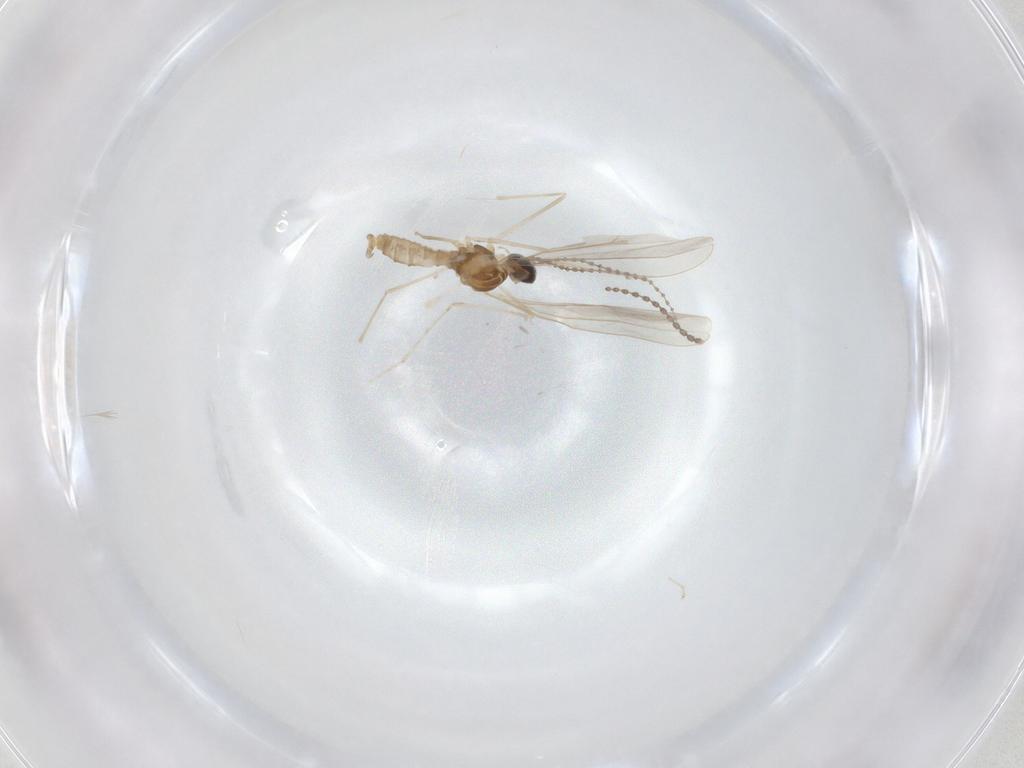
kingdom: Animalia
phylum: Arthropoda
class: Insecta
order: Diptera
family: Cecidomyiidae
